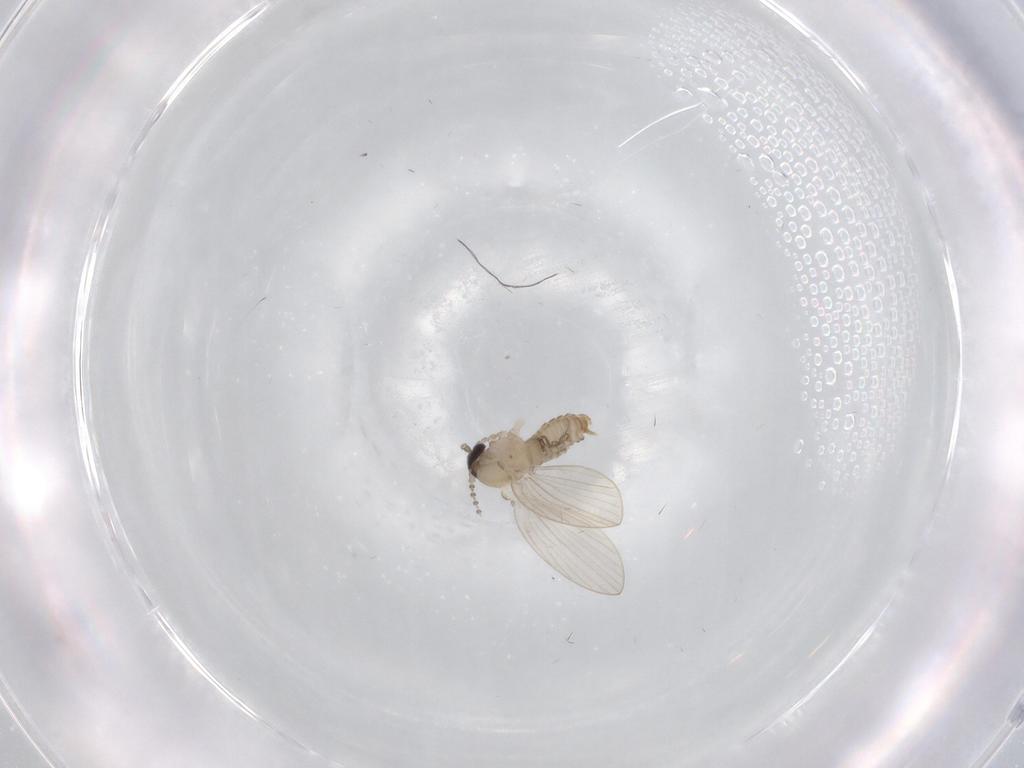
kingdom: Animalia
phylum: Arthropoda
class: Insecta
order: Diptera
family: Psychodidae
